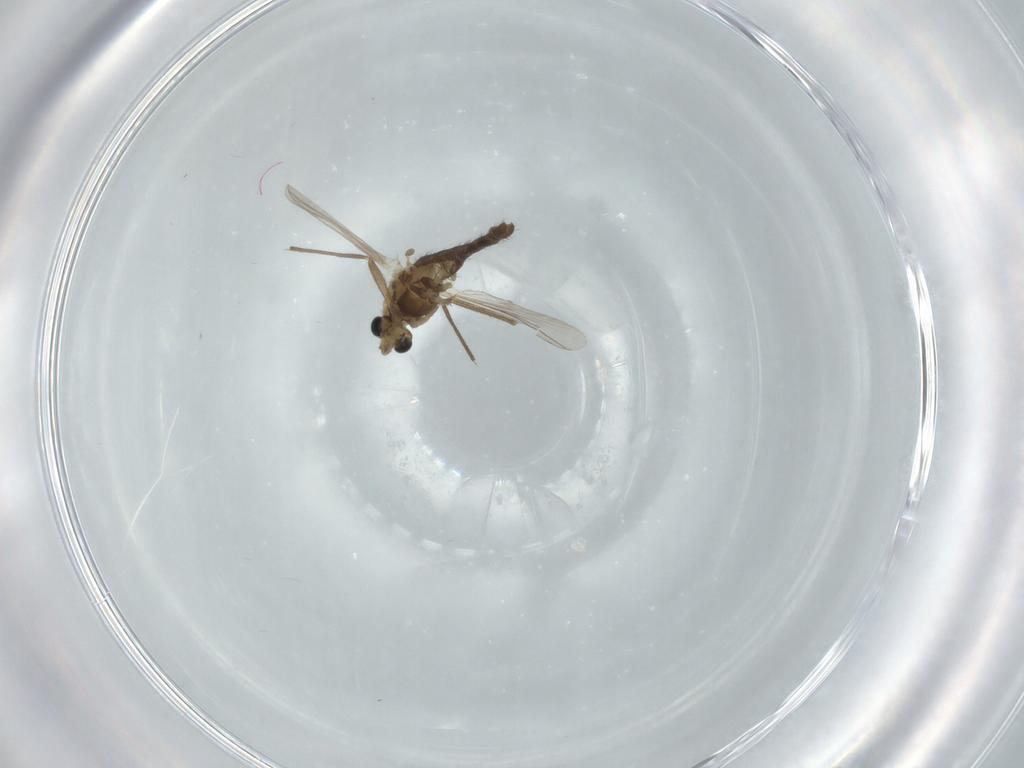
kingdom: Animalia
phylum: Arthropoda
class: Insecta
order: Diptera
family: Chironomidae
